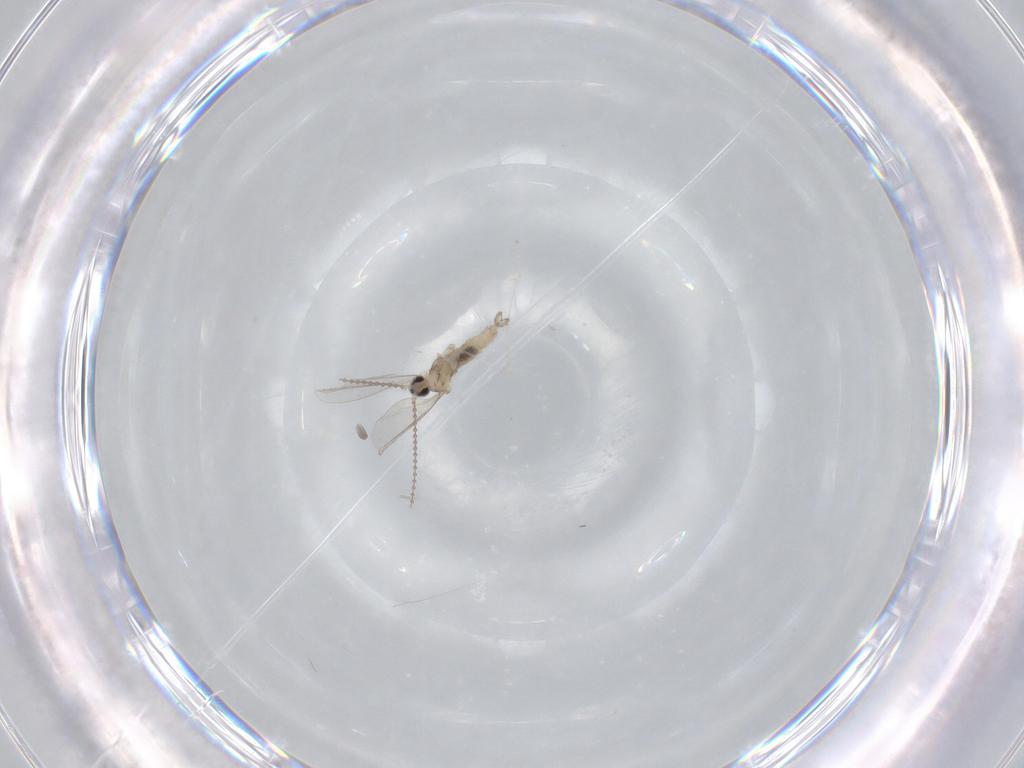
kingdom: Animalia
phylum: Arthropoda
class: Insecta
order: Diptera
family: Cecidomyiidae
